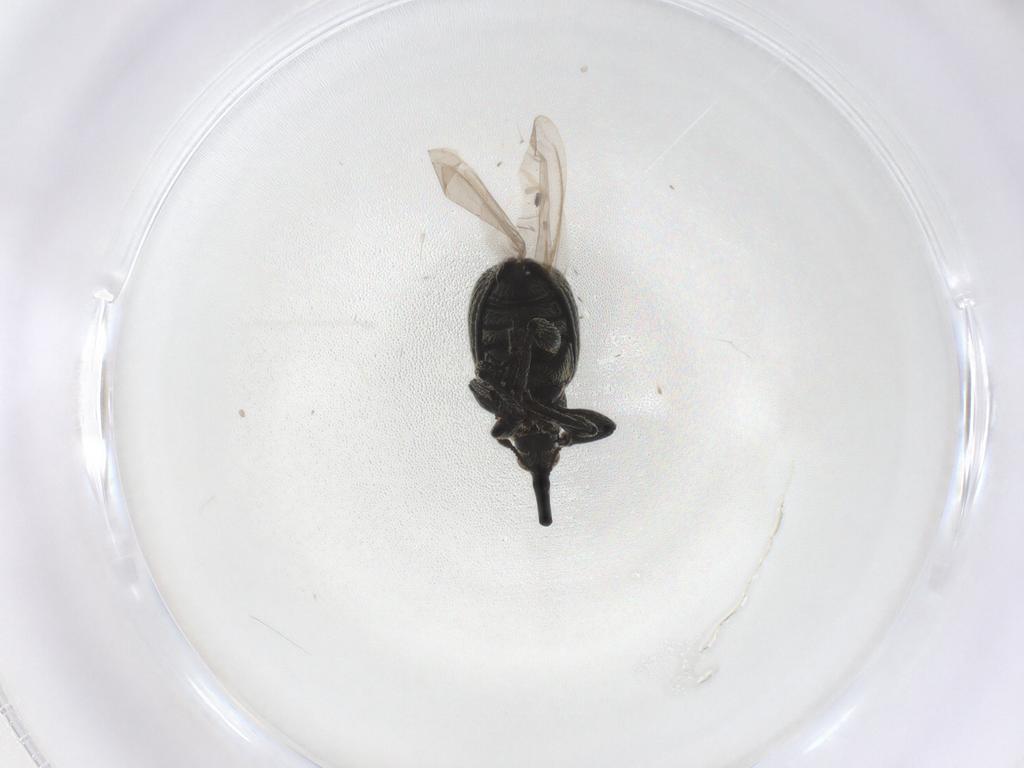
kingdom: Animalia
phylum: Arthropoda
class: Insecta
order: Coleoptera
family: Brentidae
